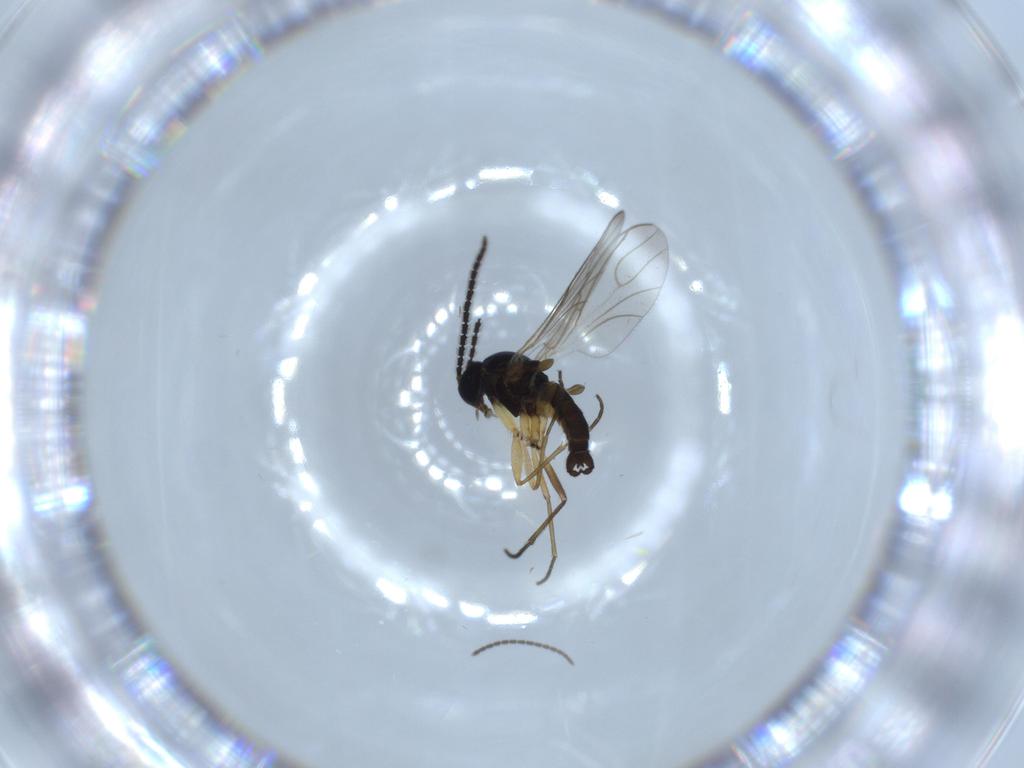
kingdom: Animalia
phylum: Arthropoda
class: Insecta
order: Diptera
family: Sciaridae
